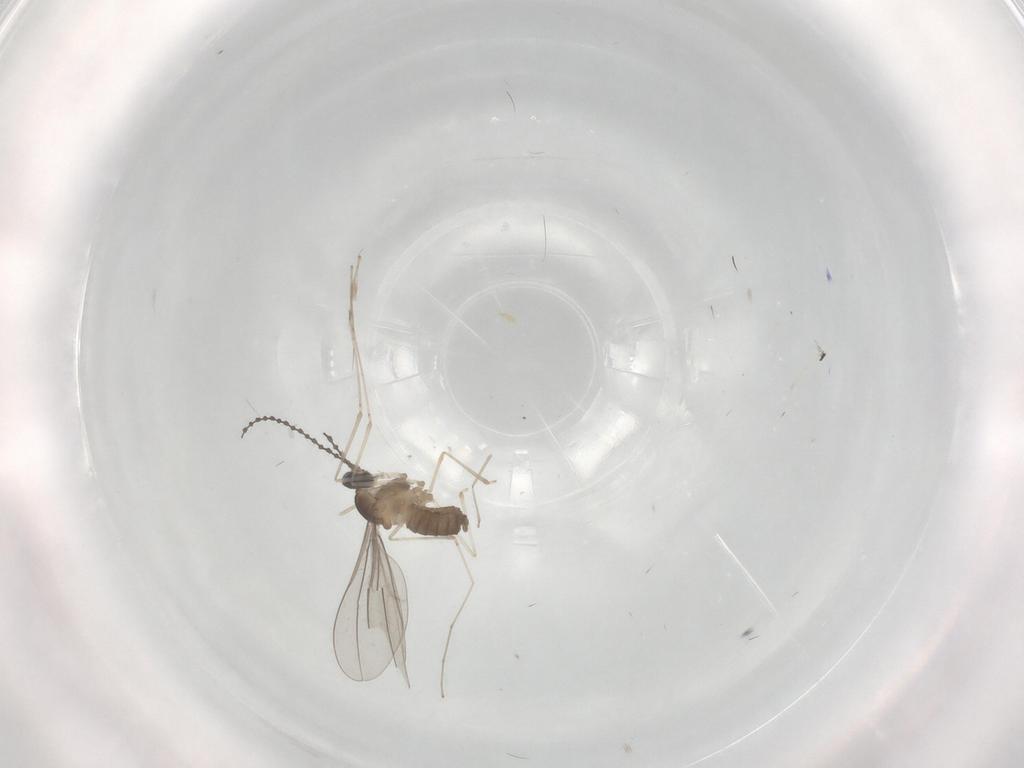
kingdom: Animalia
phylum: Arthropoda
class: Insecta
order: Diptera
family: Cecidomyiidae
